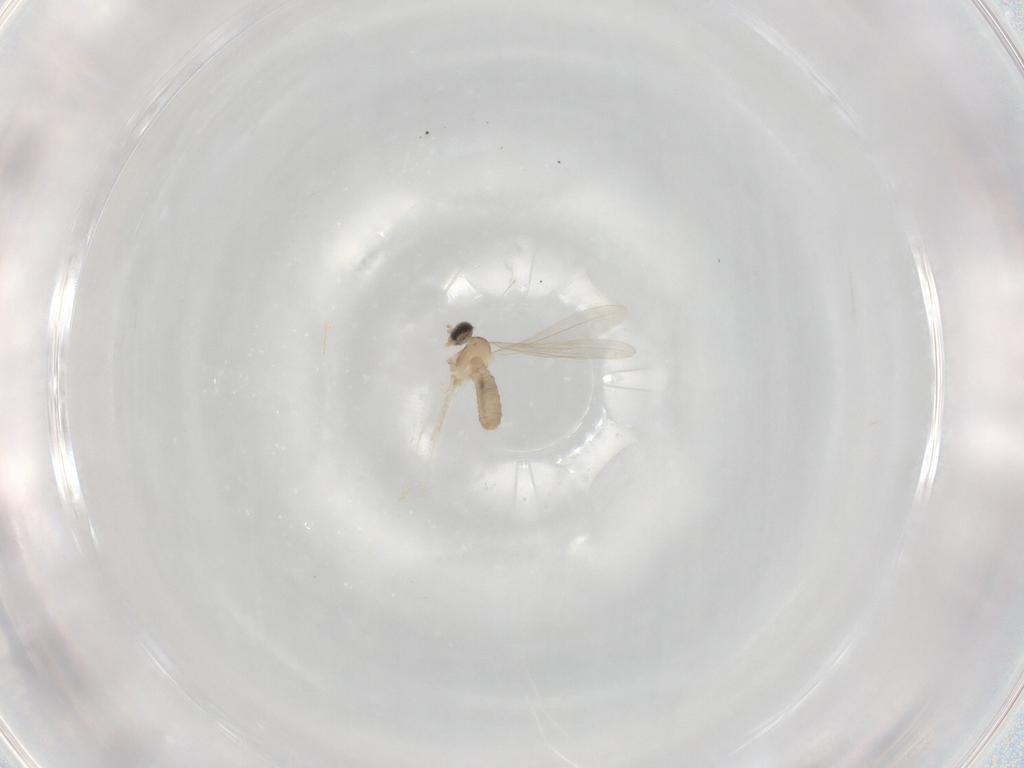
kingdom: Animalia
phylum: Arthropoda
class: Insecta
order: Diptera
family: Cecidomyiidae
